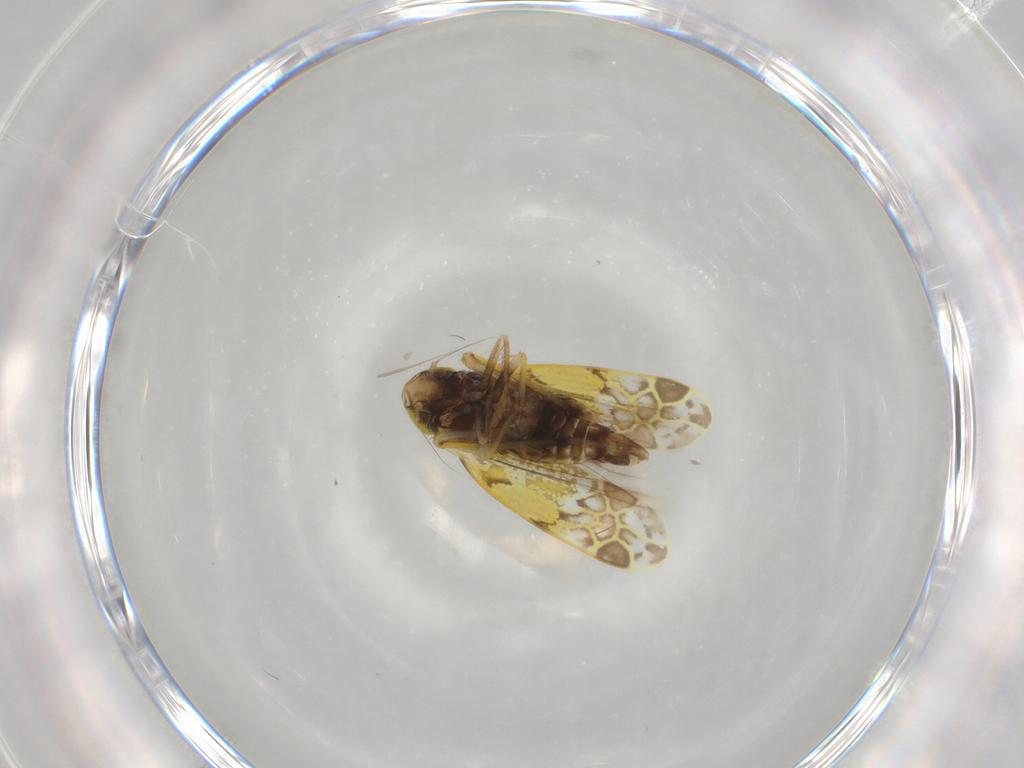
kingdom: Animalia
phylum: Arthropoda
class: Insecta
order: Hemiptera
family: Cicadellidae
